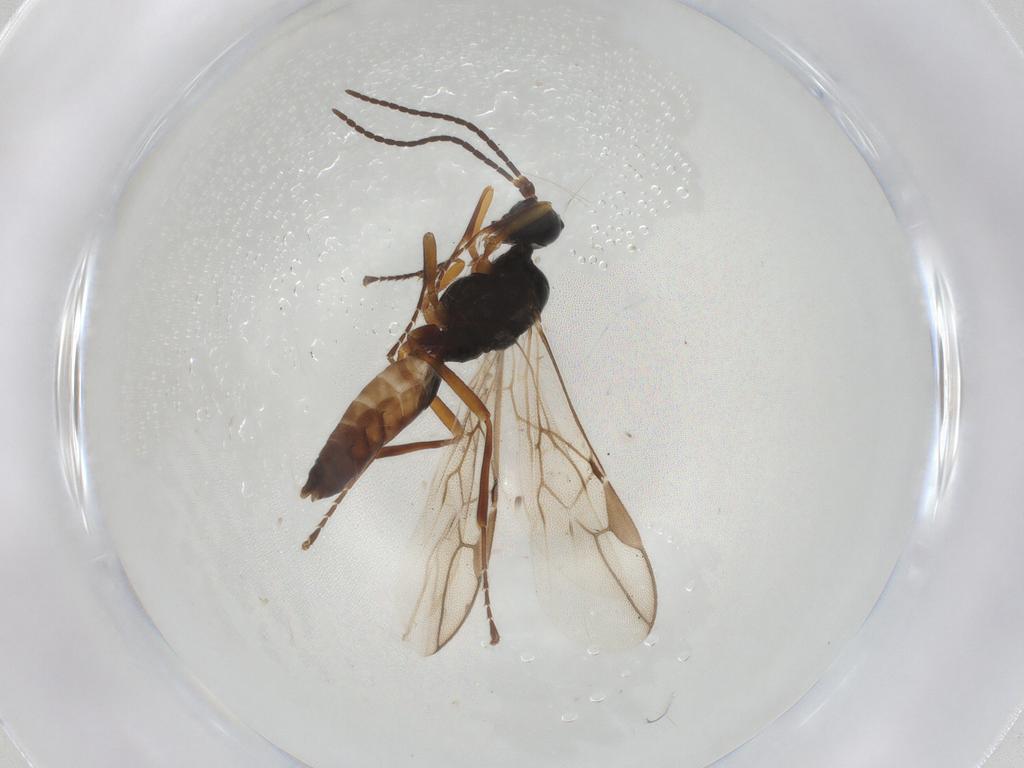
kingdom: Animalia
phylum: Arthropoda
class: Insecta
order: Hymenoptera
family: Braconidae
